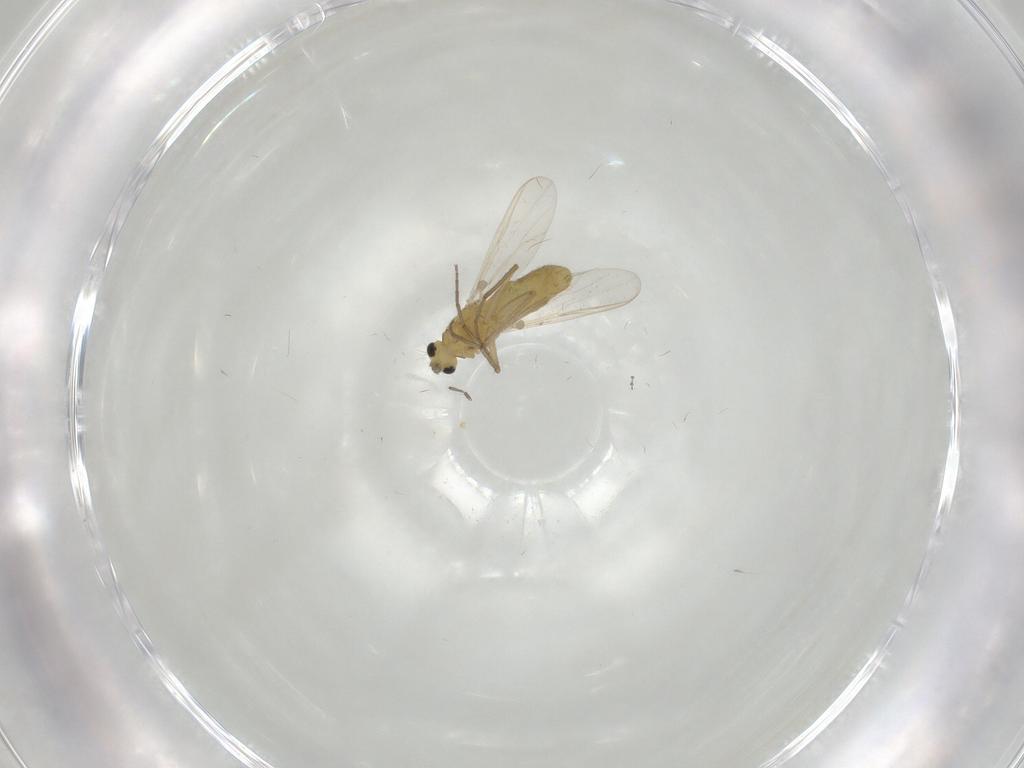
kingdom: Animalia
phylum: Arthropoda
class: Insecta
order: Diptera
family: Chironomidae
